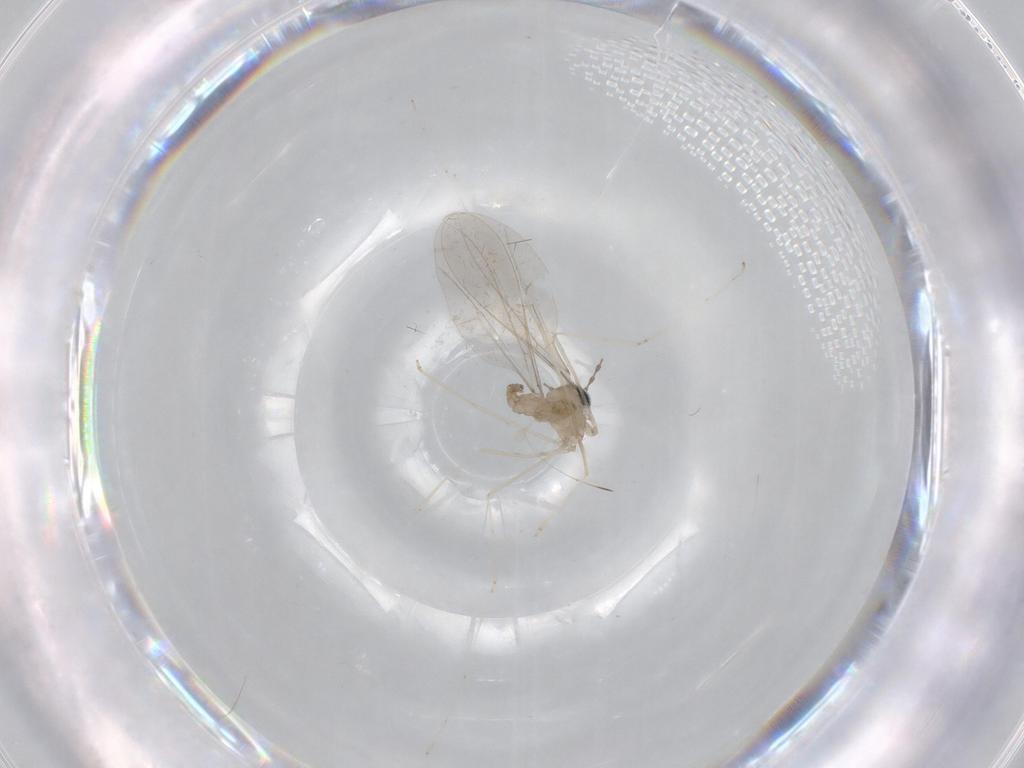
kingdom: Animalia
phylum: Arthropoda
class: Insecta
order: Diptera
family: Cecidomyiidae
